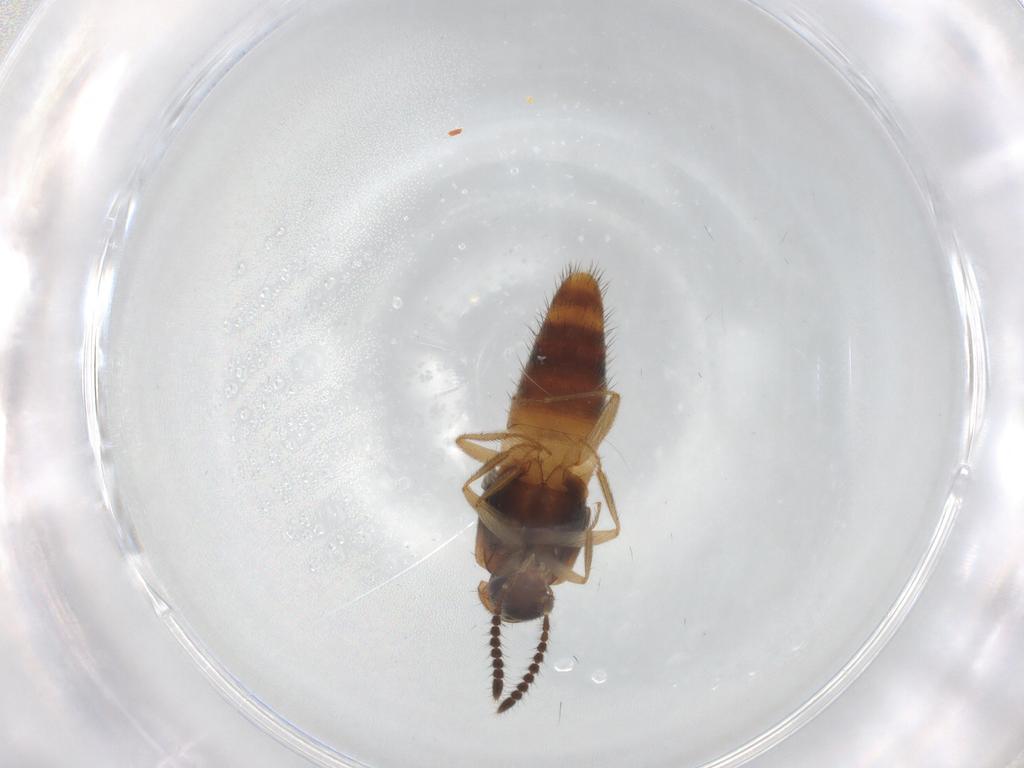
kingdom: Animalia
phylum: Arthropoda
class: Insecta
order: Coleoptera
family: Staphylinidae
